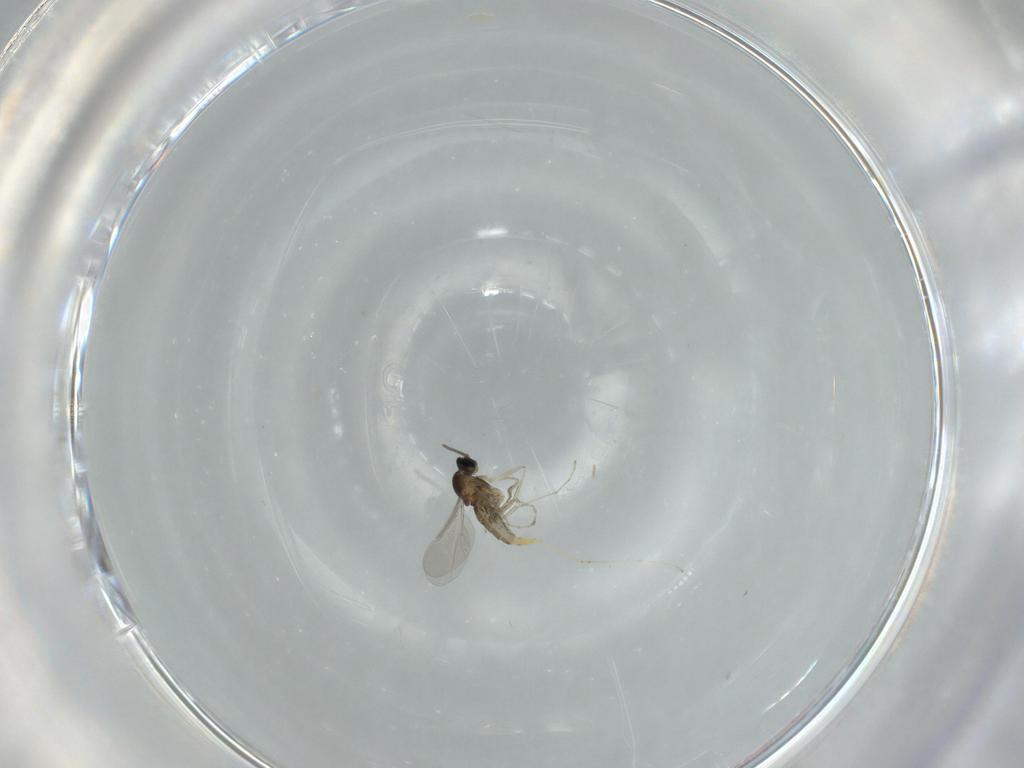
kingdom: Animalia
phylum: Arthropoda
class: Insecta
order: Diptera
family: Cecidomyiidae
